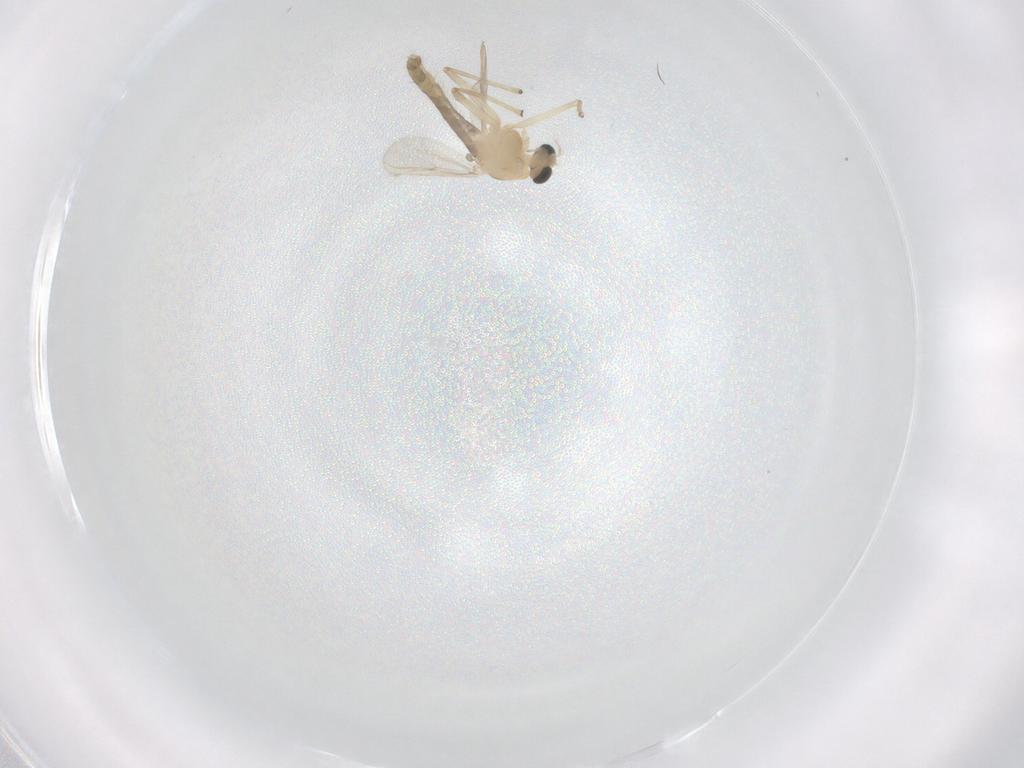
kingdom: Animalia
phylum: Arthropoda
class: Insecta
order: Diptera
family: Chironomidae
